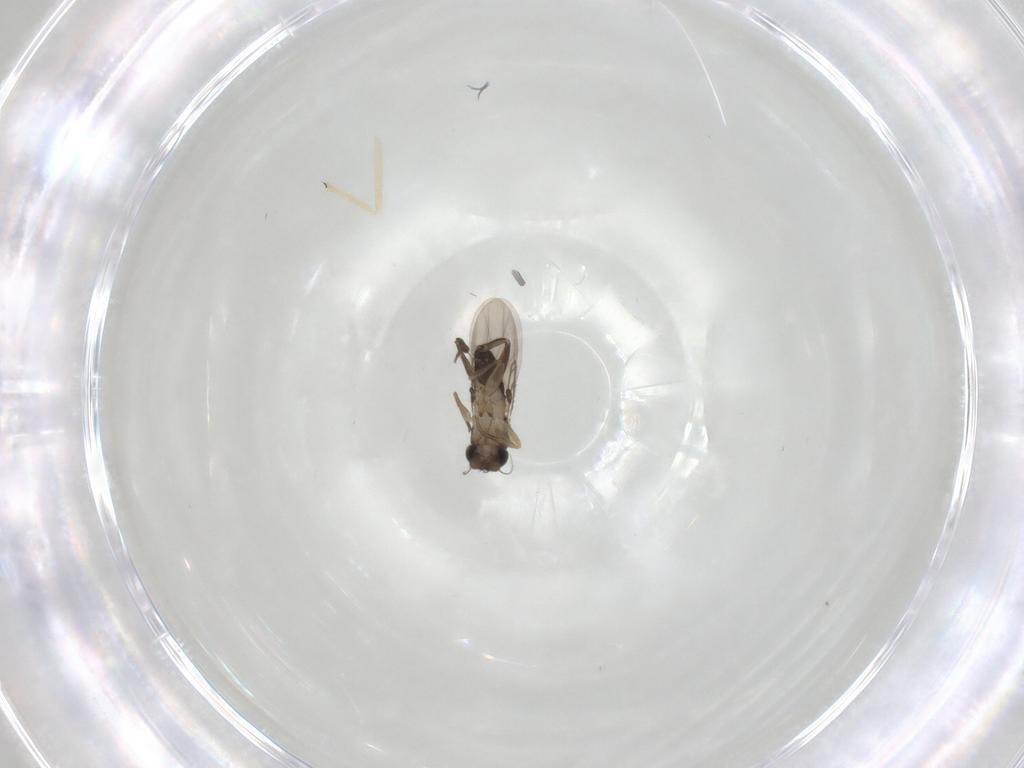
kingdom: Animalia
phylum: Arthropoda
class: Insecta
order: Diptera
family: Phoridae
